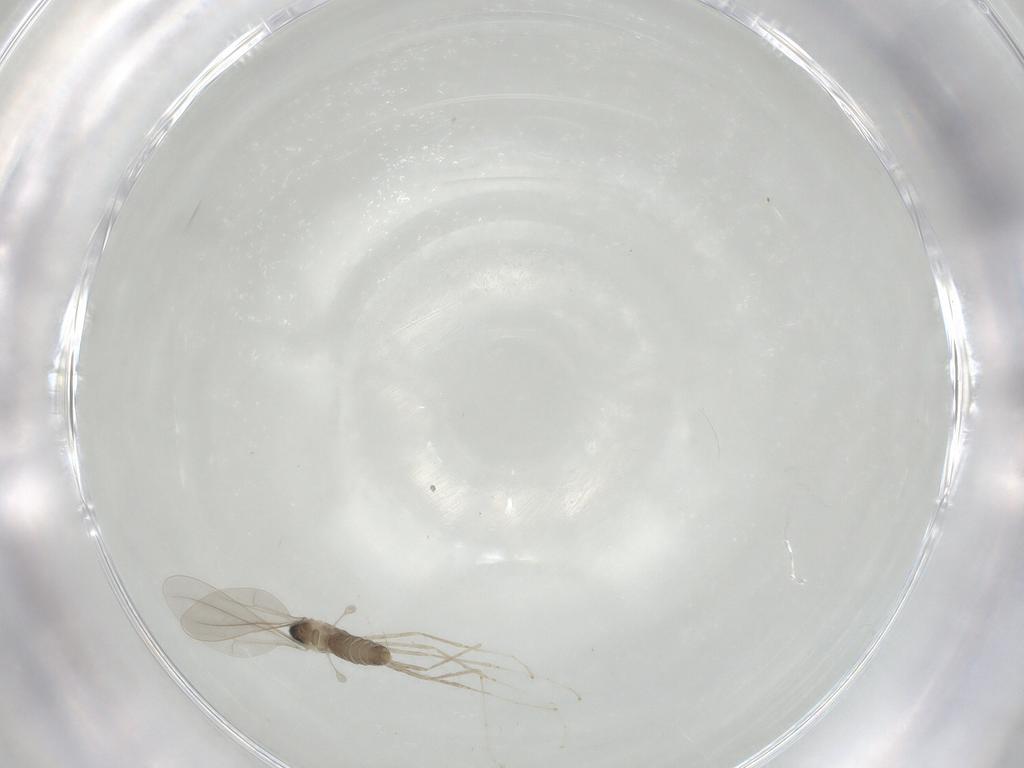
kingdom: Animalia
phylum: Arthropoda
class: Insecta
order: Diptera
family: Cecidomyiidae
